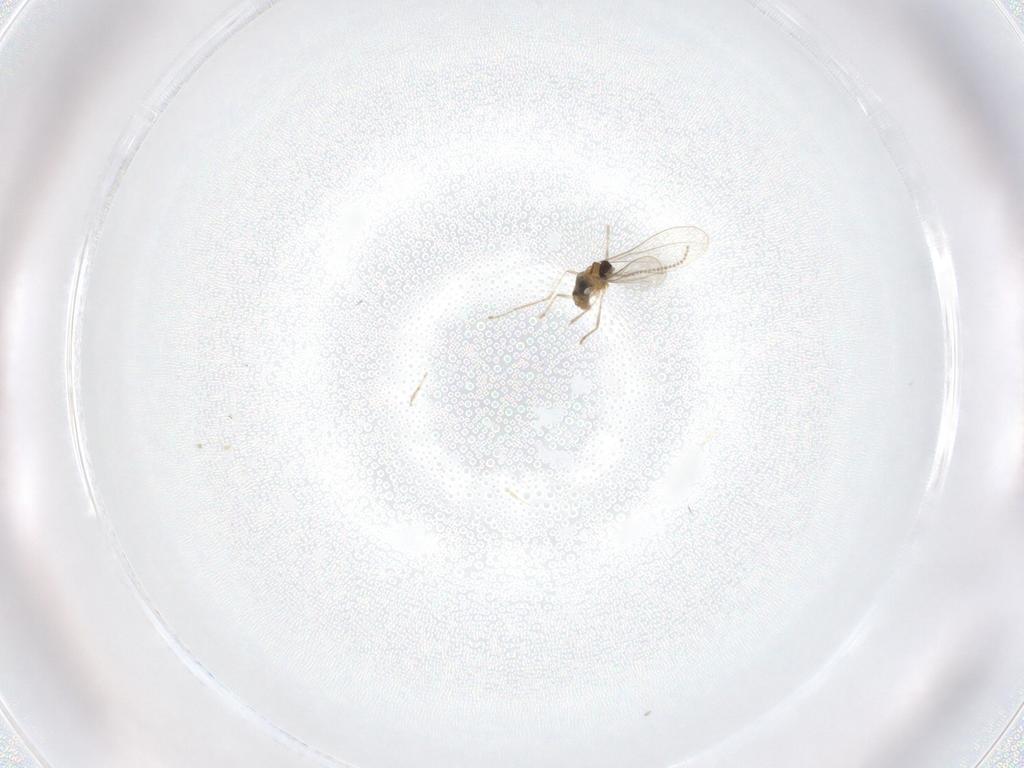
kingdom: Animalia
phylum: Arthropoda
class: Insecta
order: Diptera
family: Cecidomyiidae
